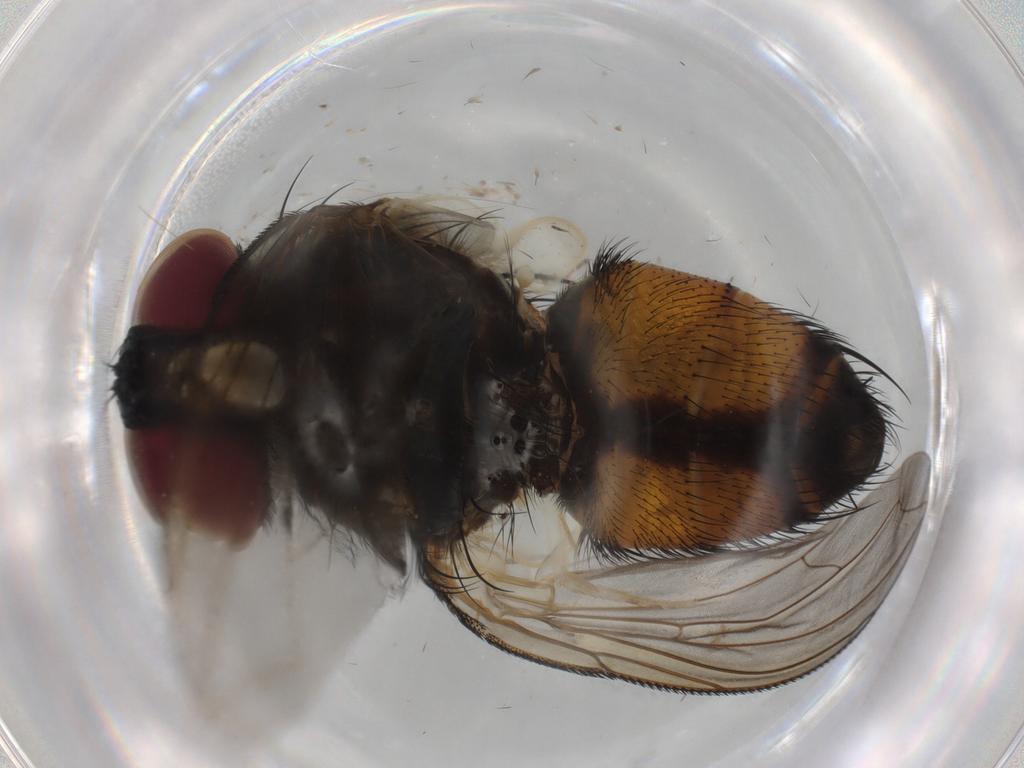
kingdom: Animalia
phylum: Arthropoda
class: Insecta
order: Diptera
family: Tachinidae
